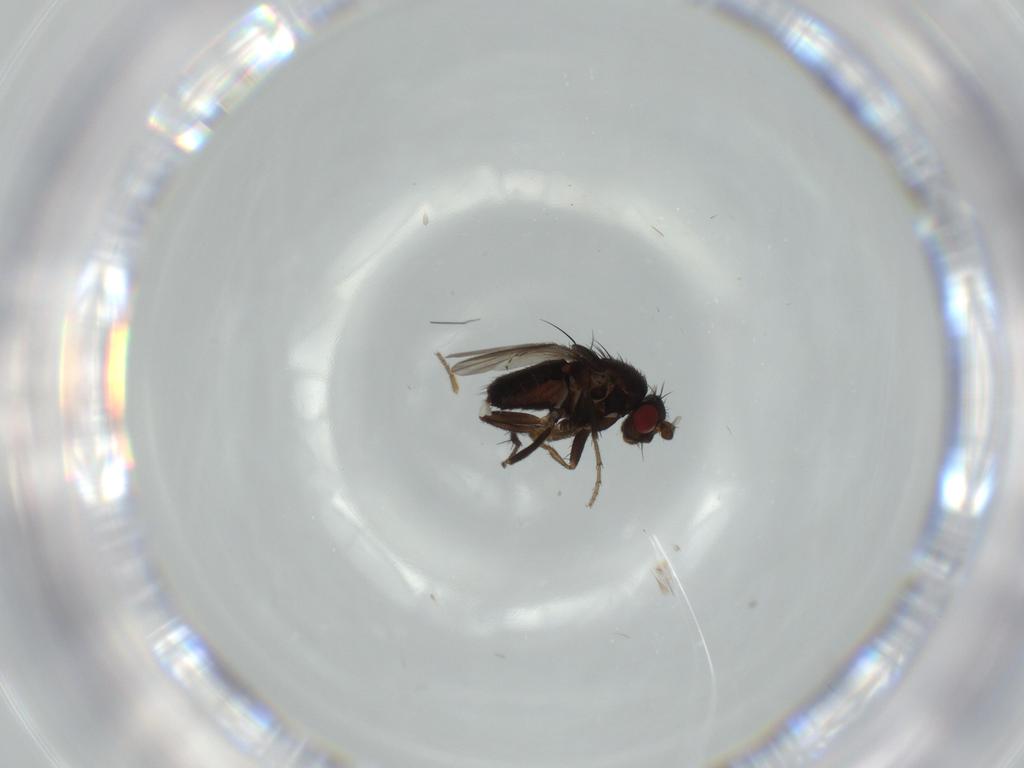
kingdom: Animalia
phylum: Arthropoda
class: Insecta
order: Diptera
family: Sphaeroceridae
